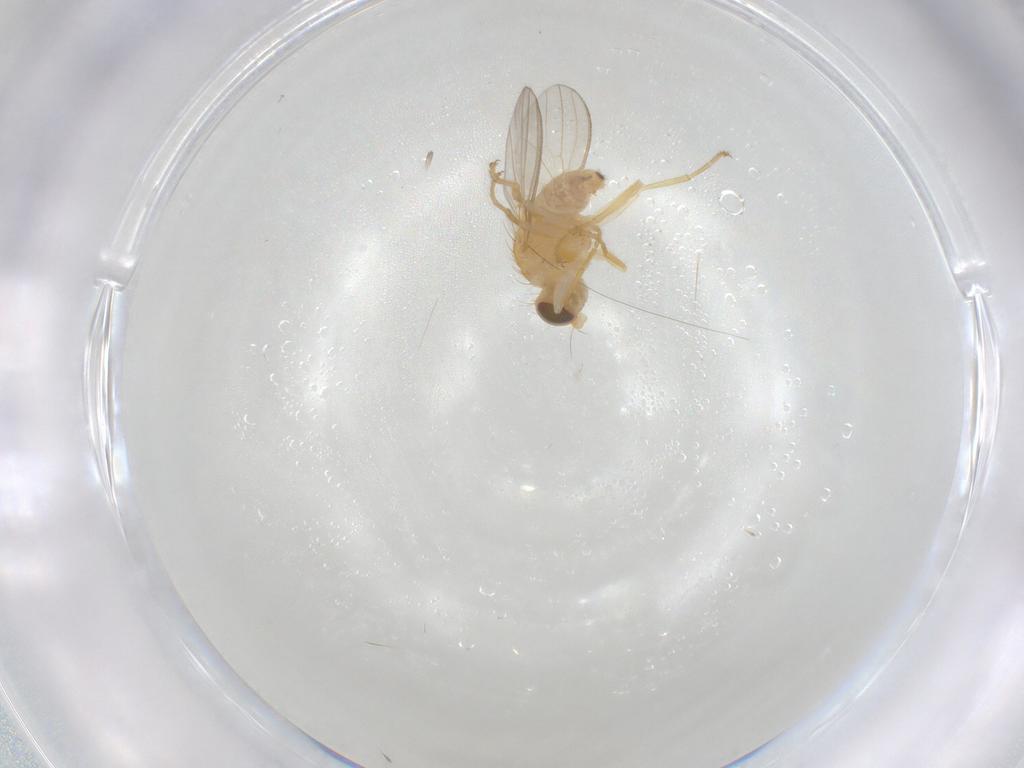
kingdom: Animalia
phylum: Arthropoda
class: Insecta
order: Diptera
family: Chyromyidae
